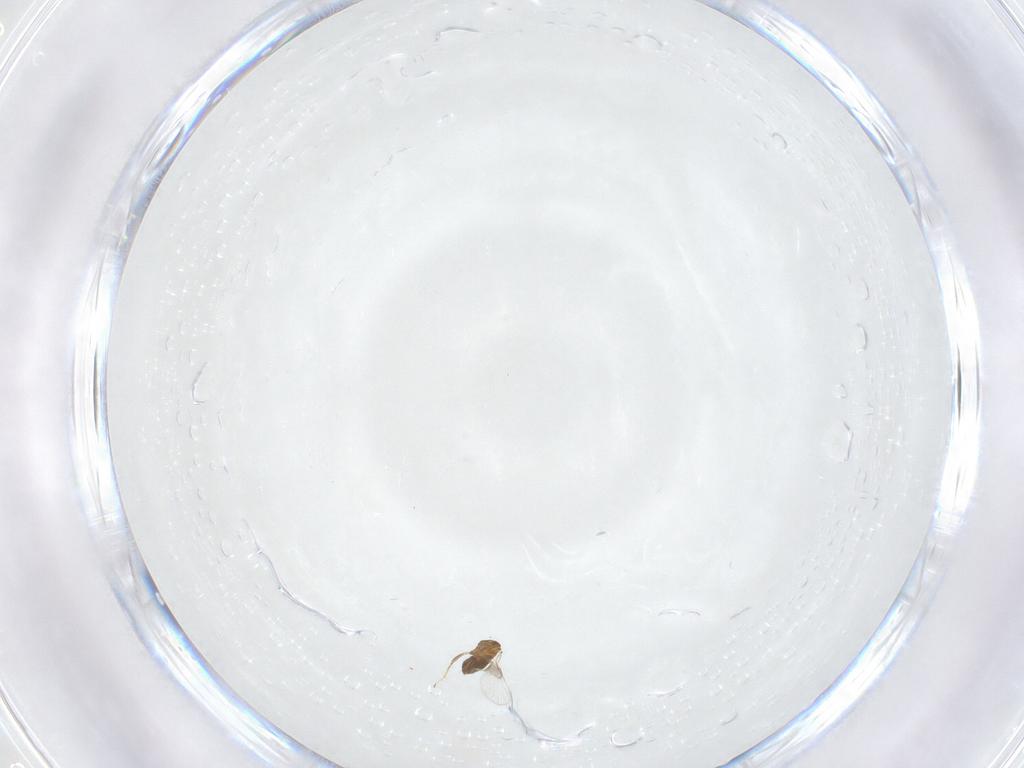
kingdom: Animalia
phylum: Arthropoda
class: Insecta
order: Hymenoptera
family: Trichogrammatidae
